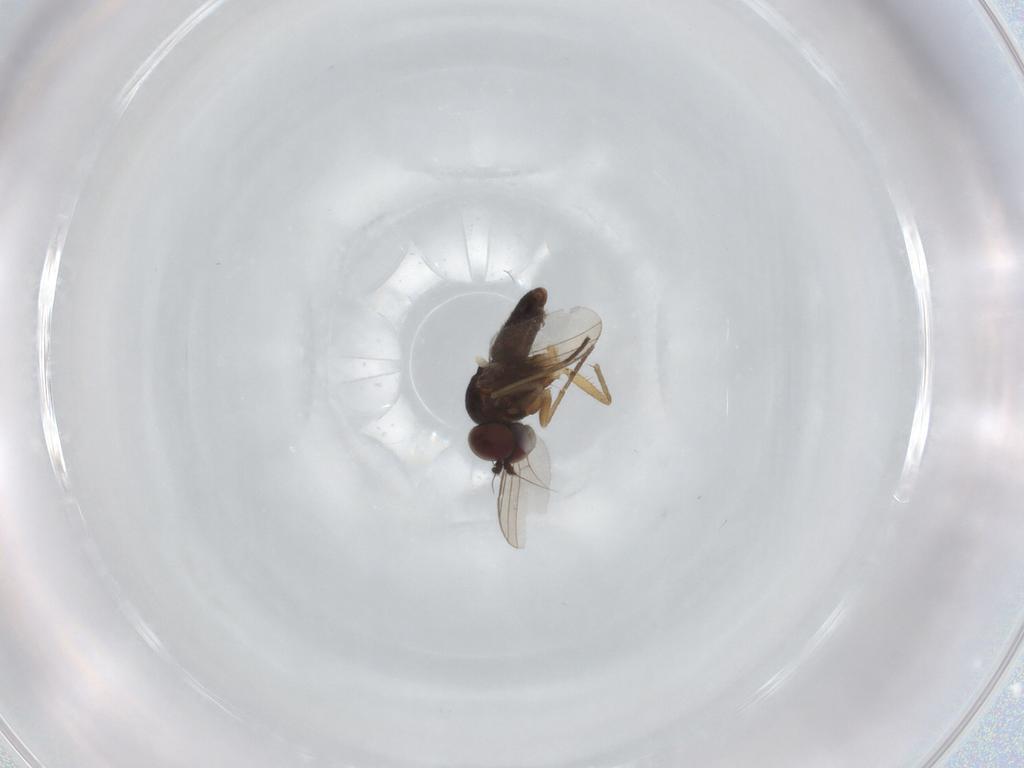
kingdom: Animalia
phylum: Arthropoda
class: Insecta
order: Diptera
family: Dolichopodidae
